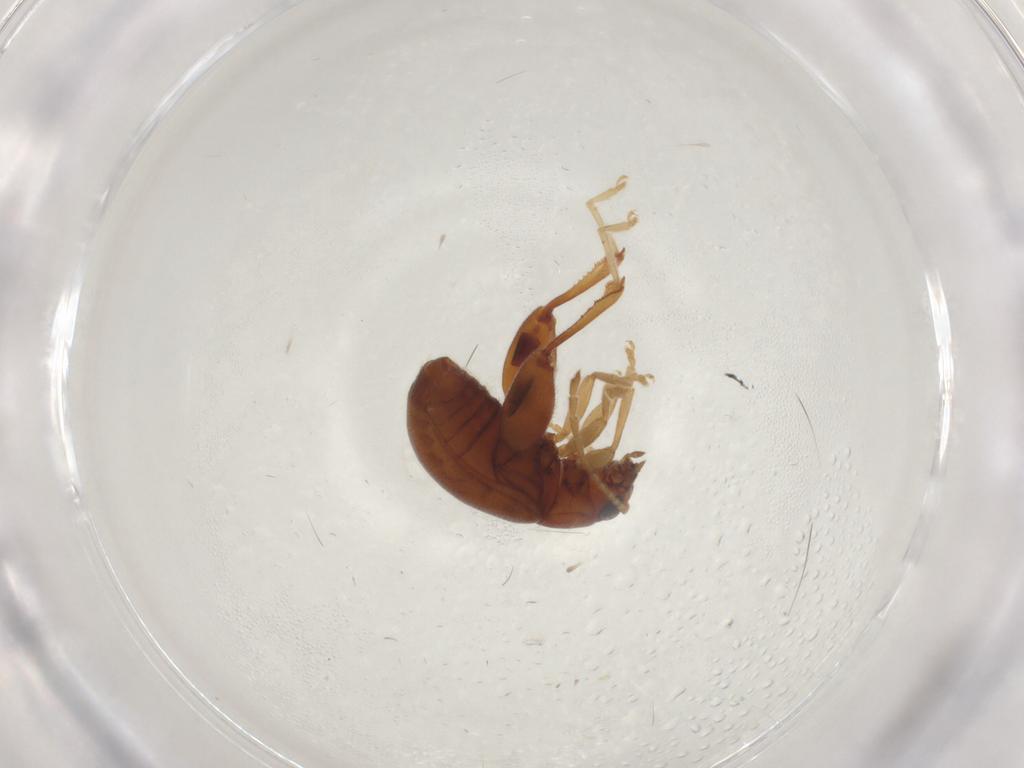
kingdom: Animalia
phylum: Arthropoda
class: Insecta
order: Coleoptera
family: Chrysomelidae
